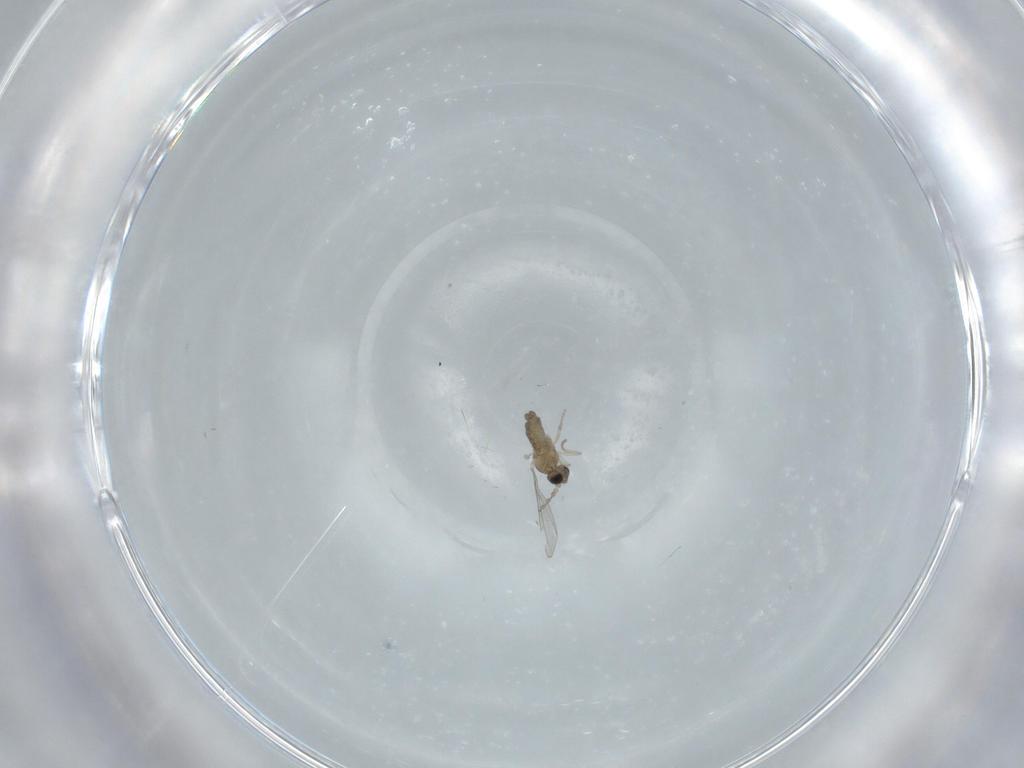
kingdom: Animalia
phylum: Arthropoda
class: Insecta
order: Diptera
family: Cecidomyiidae
